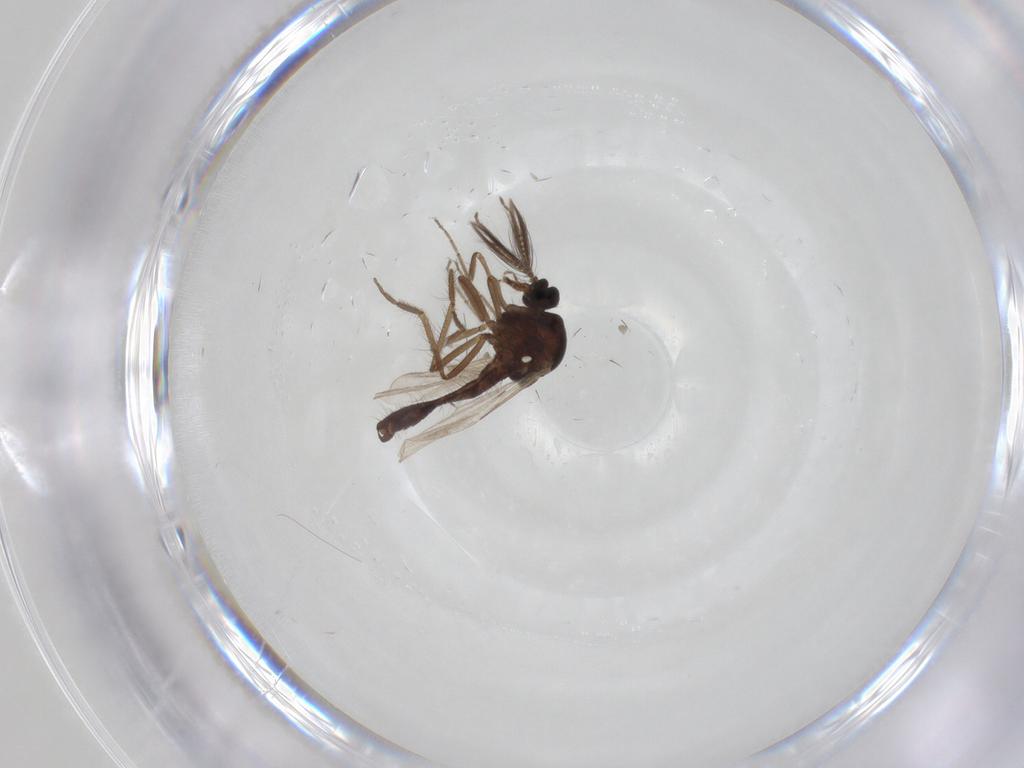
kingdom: Animalia
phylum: Arthropoda
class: Insecta
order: Diptera
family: Ceratopogonidae
